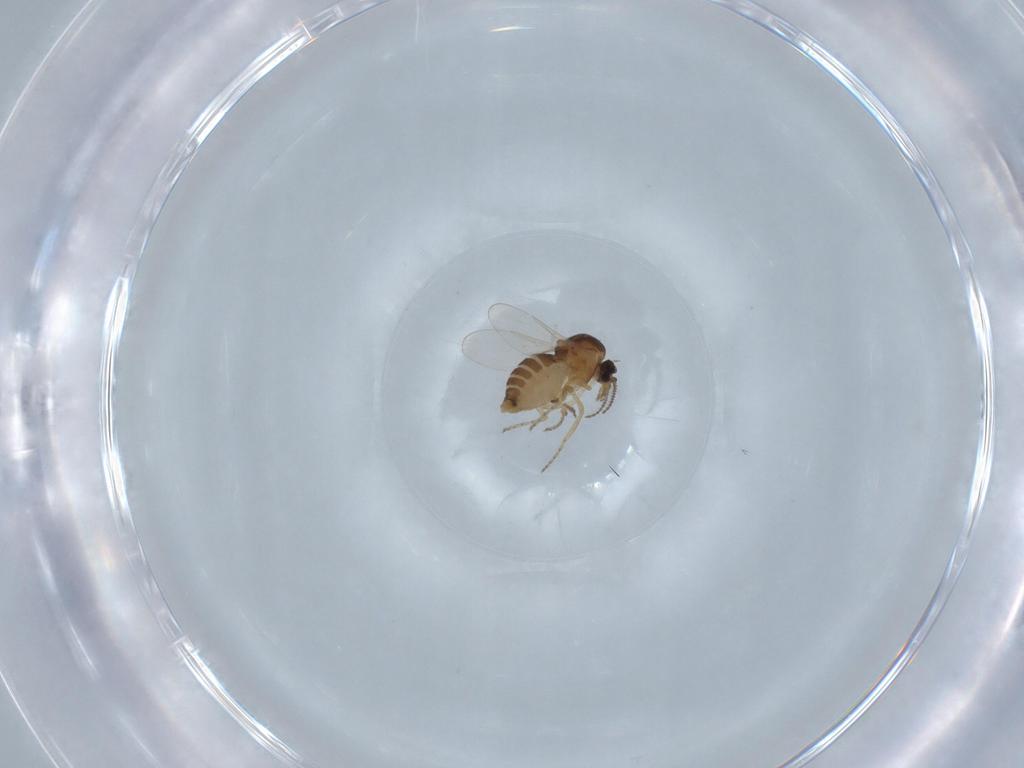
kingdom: Animalia
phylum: Arthropoda
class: Insecta
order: Diptera
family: Ceratopogonidae
